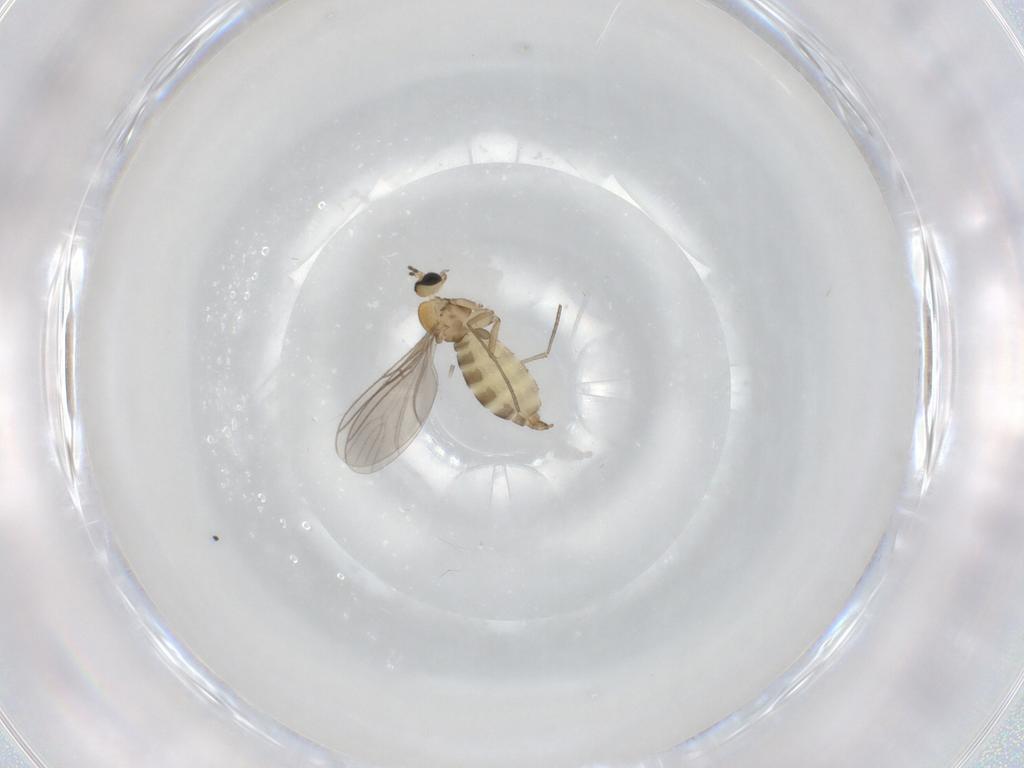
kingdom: Animalia
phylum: Arthropoda
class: Insecta
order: Diptera
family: Sciaridae
